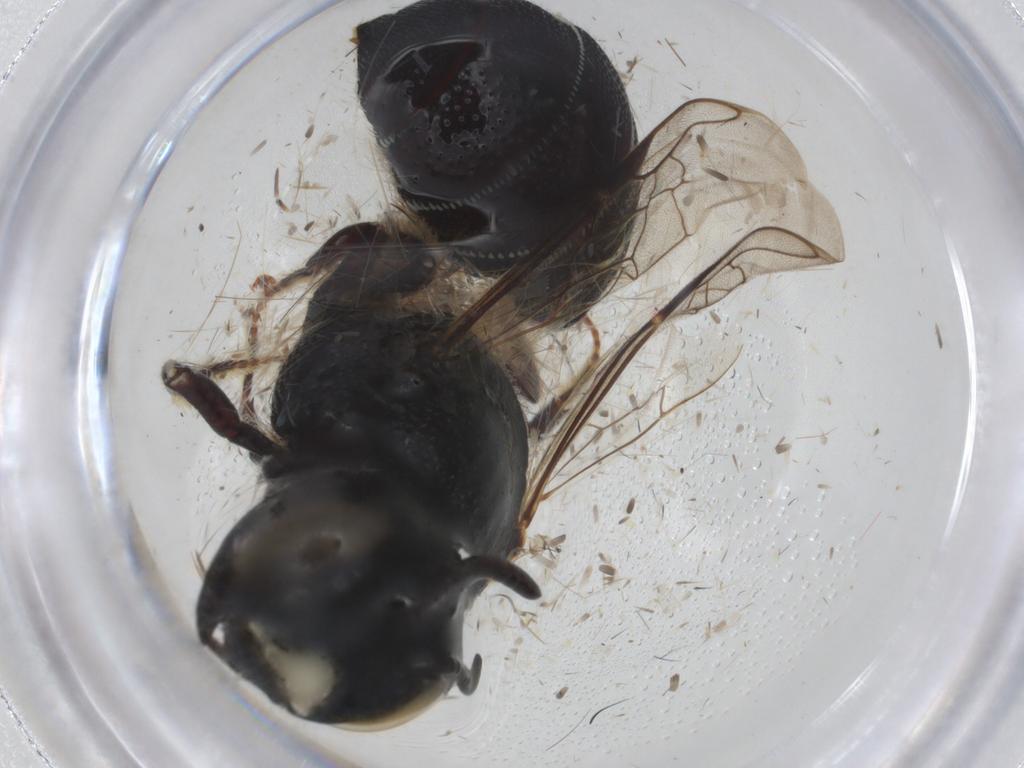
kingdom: Animalia
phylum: Arthropoda
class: Insecta
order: Hymenoptera
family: Apidae
